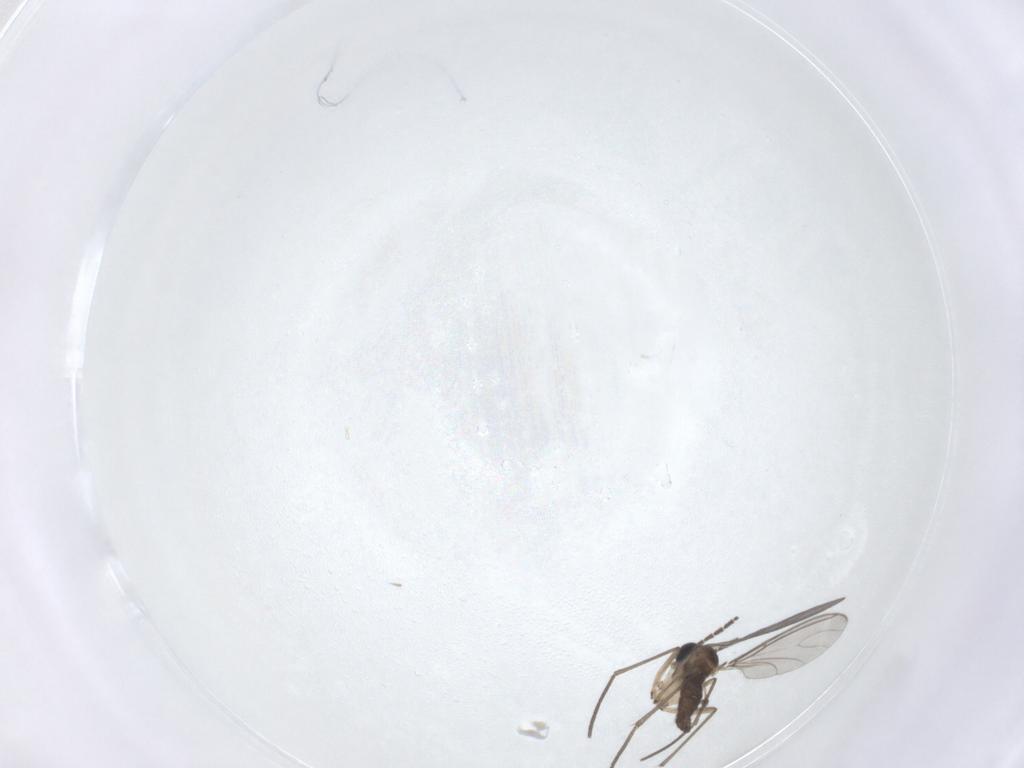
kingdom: Animalia
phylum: Arthropoda
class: Insecta
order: Diptera
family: Sciaridae
